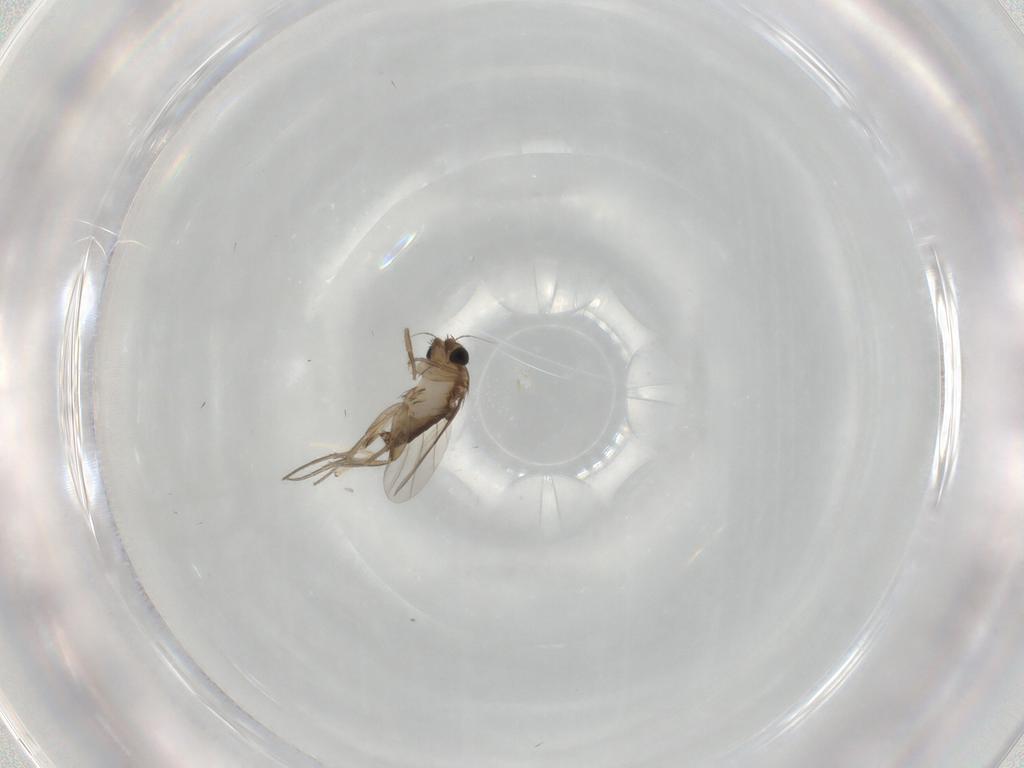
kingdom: Animalia
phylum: Arthropoda
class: Insecta
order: Diptera
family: Chironomidae
